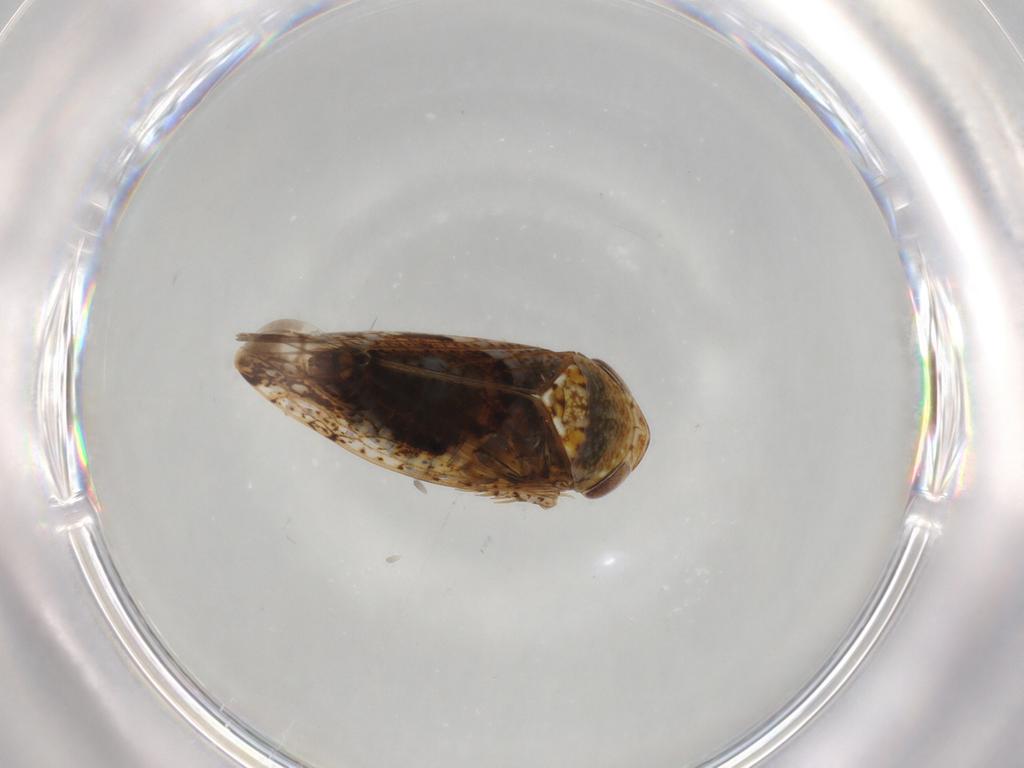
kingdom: Animalia
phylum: Arthropoda
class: Insecta
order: Hemiptera
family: Cicadellidae
